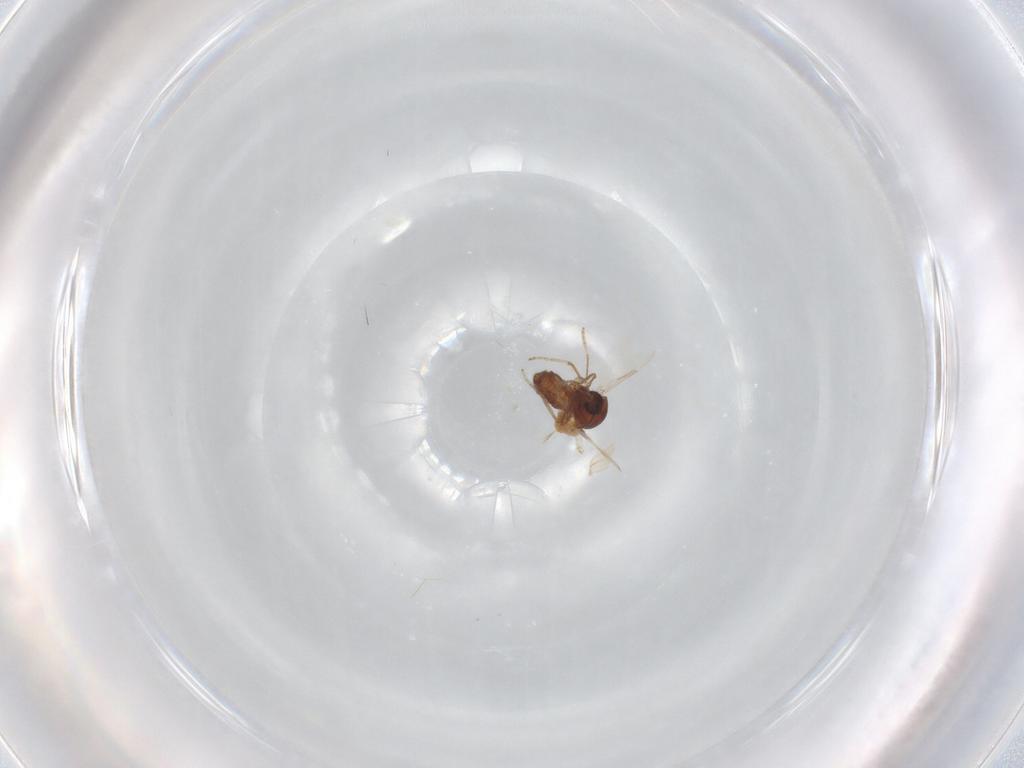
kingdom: Animalia
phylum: Arthropoda
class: Insecta
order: Diptera
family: Ceratopogonidae
